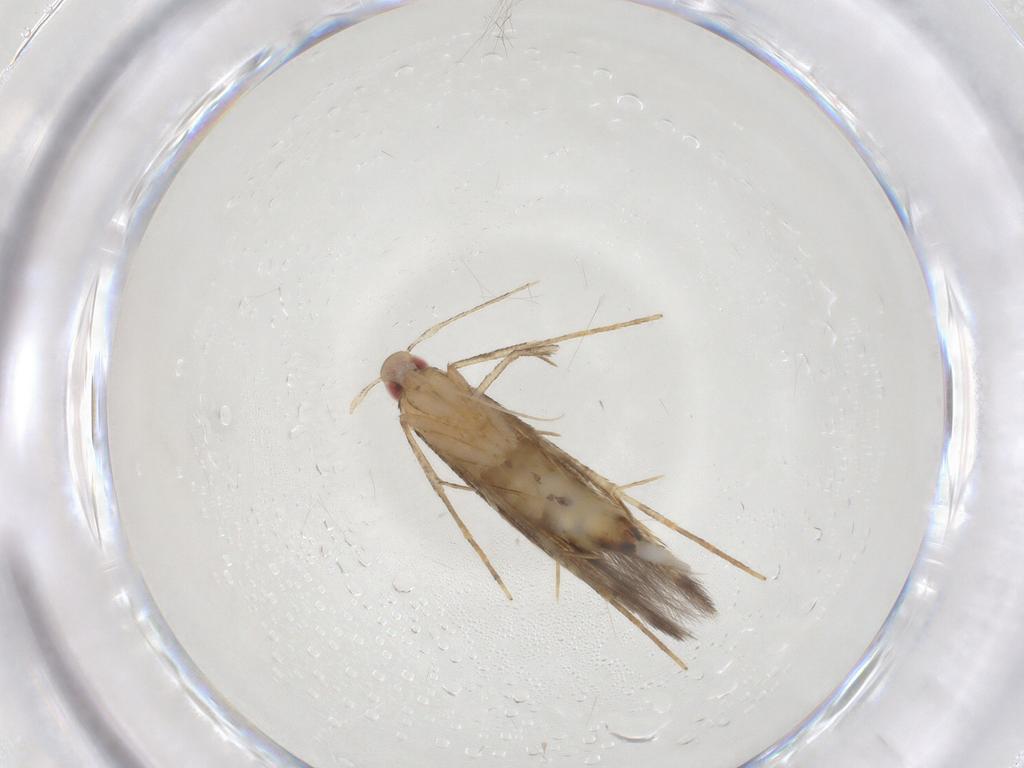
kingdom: Animalia
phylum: Arthropoda
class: Insecta
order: Lepidoptera
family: Cosmopterigidae
